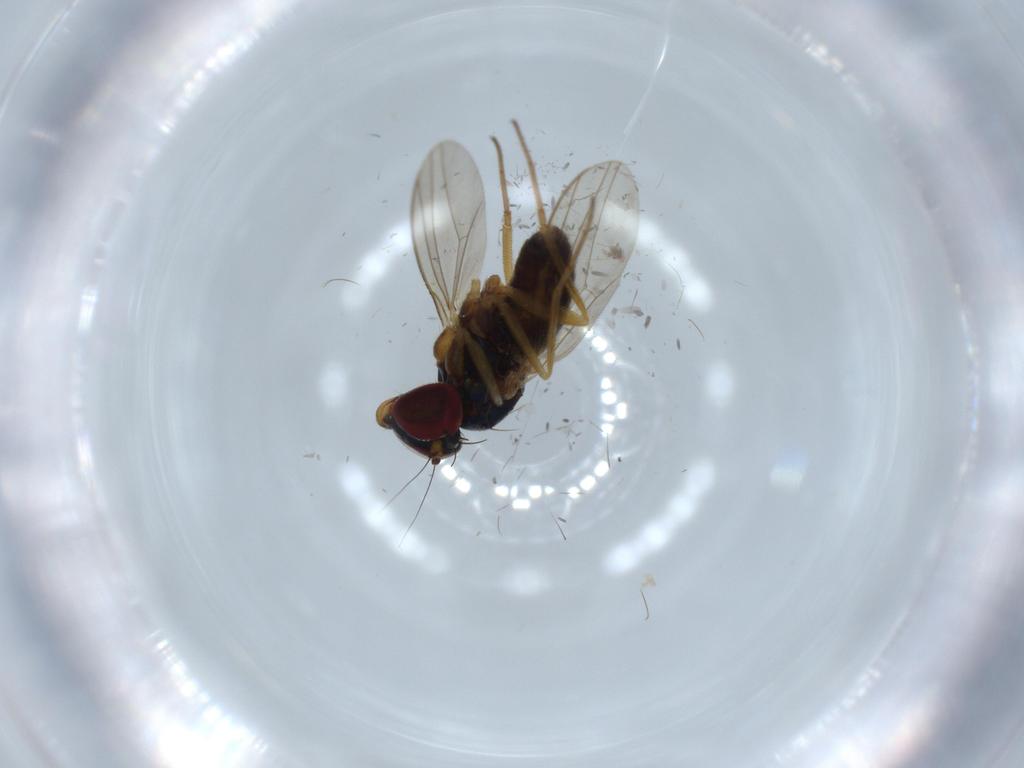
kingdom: Animalia
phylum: Arthropoda
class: Insecta
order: Diptera
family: Dolichopodidae
